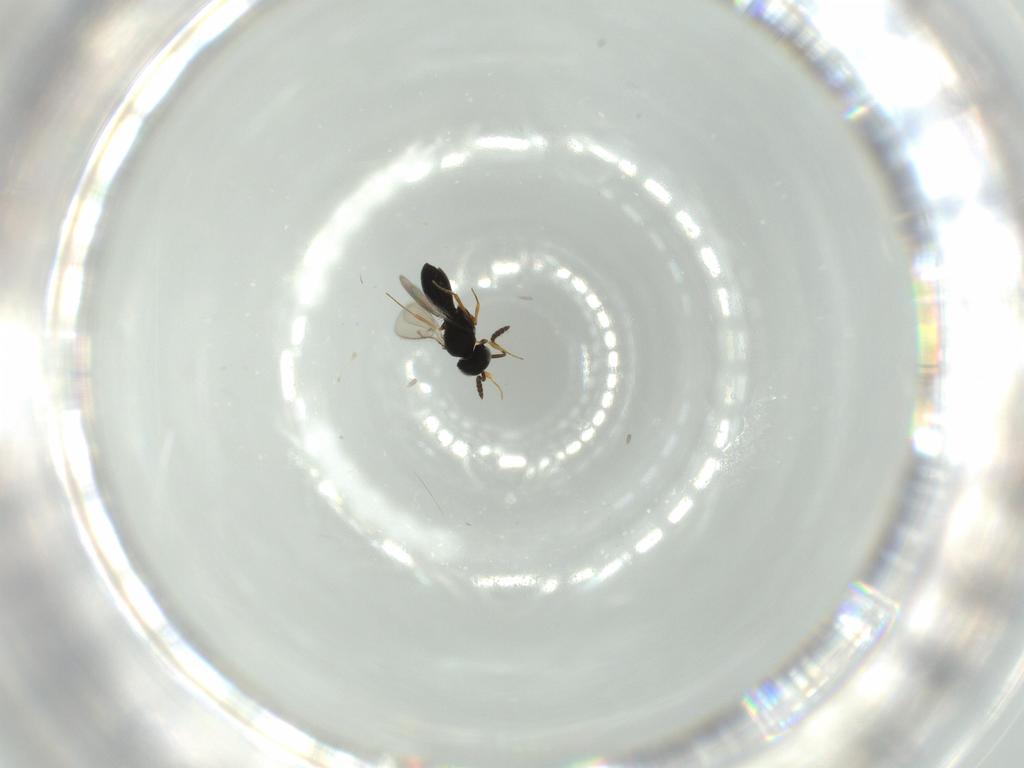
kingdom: Animalia
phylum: Arthropoda
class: Insecta
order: Hymenoptera
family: Scelionidae
